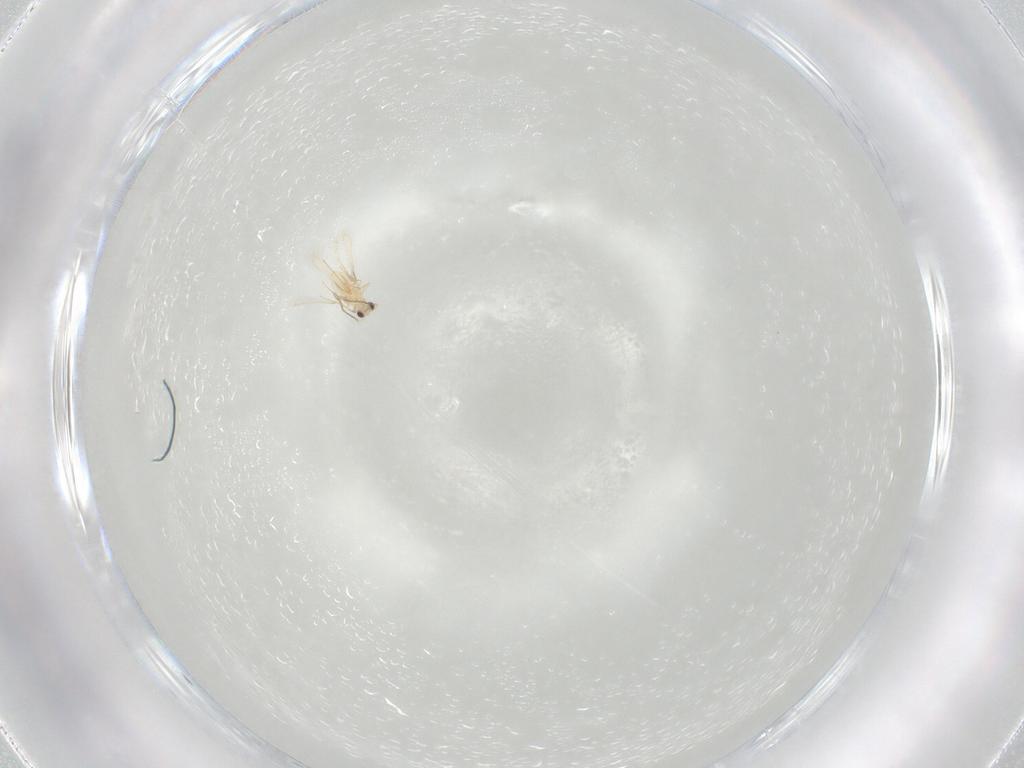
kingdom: Animalia
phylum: Arthropoda
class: Insecta
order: Hymenoptera
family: Mymaridae
